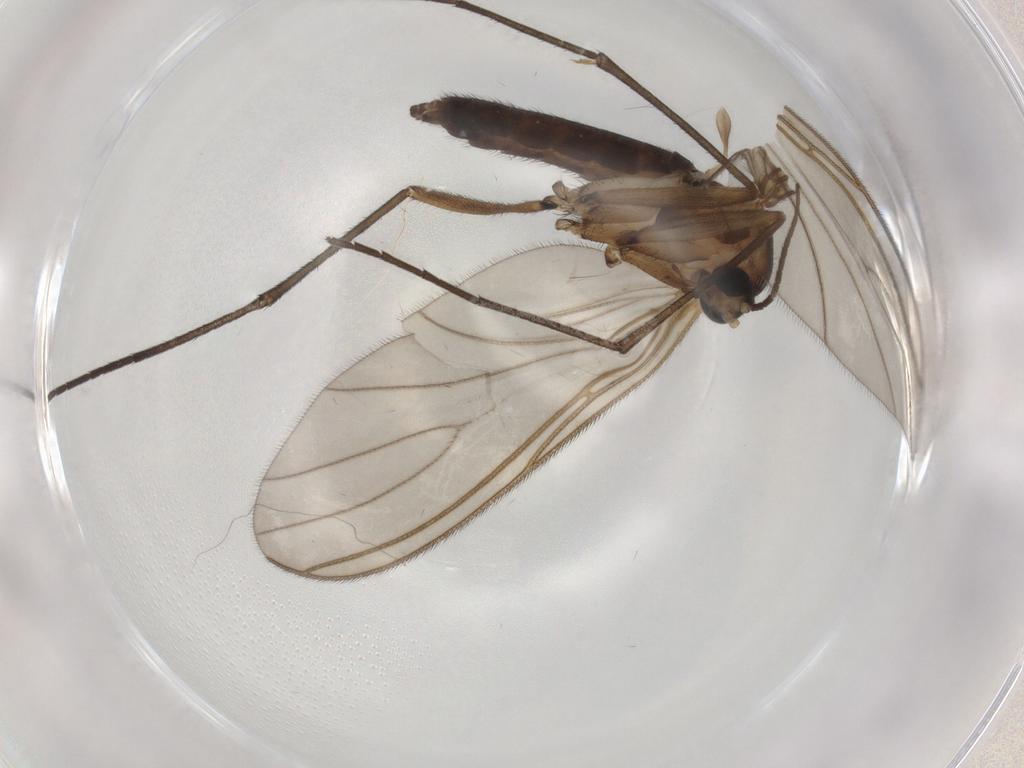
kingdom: Animalia
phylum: Arthropoda
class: Insecta
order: Diptera
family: Sciaridae
